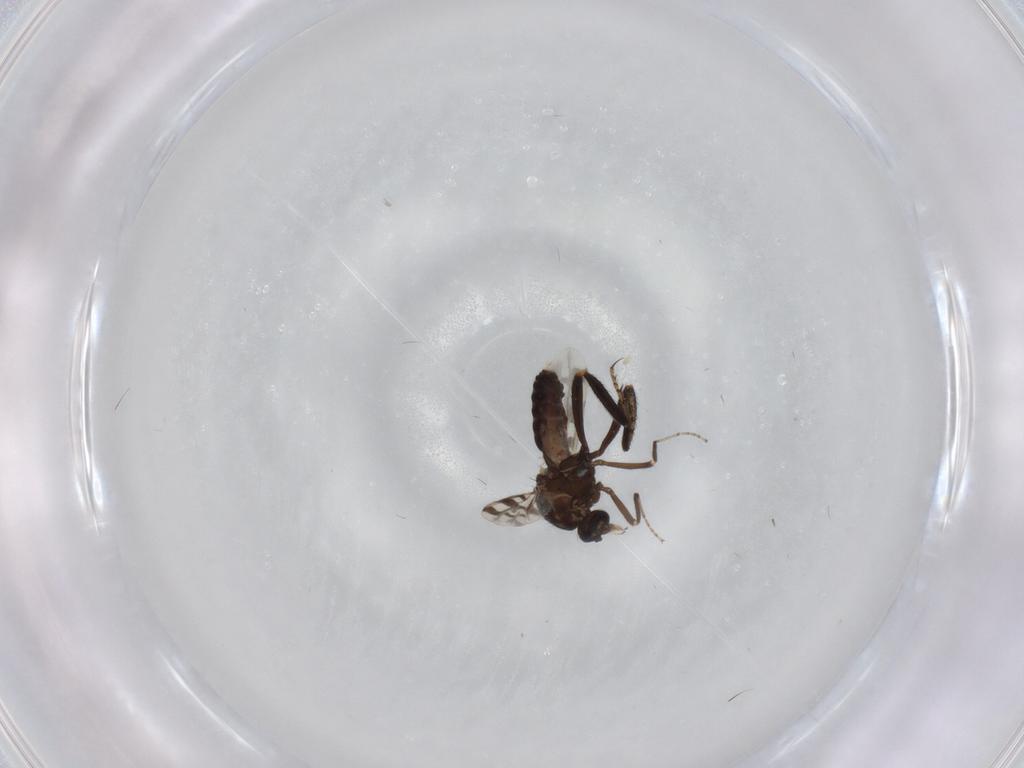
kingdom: Animalia
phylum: Arthropoda
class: Insecta
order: Diptera
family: Ceratopogonidae
